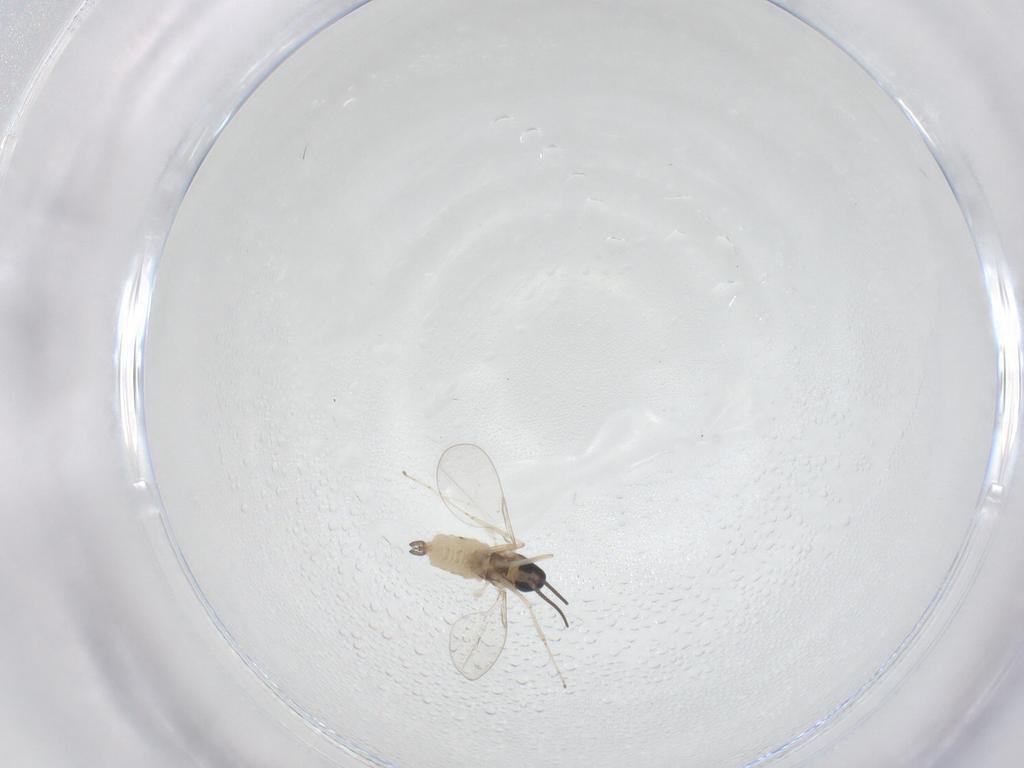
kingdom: Animalia
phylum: Arthropoda
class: Insecta
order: Diptera
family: Cecidomyiidae
